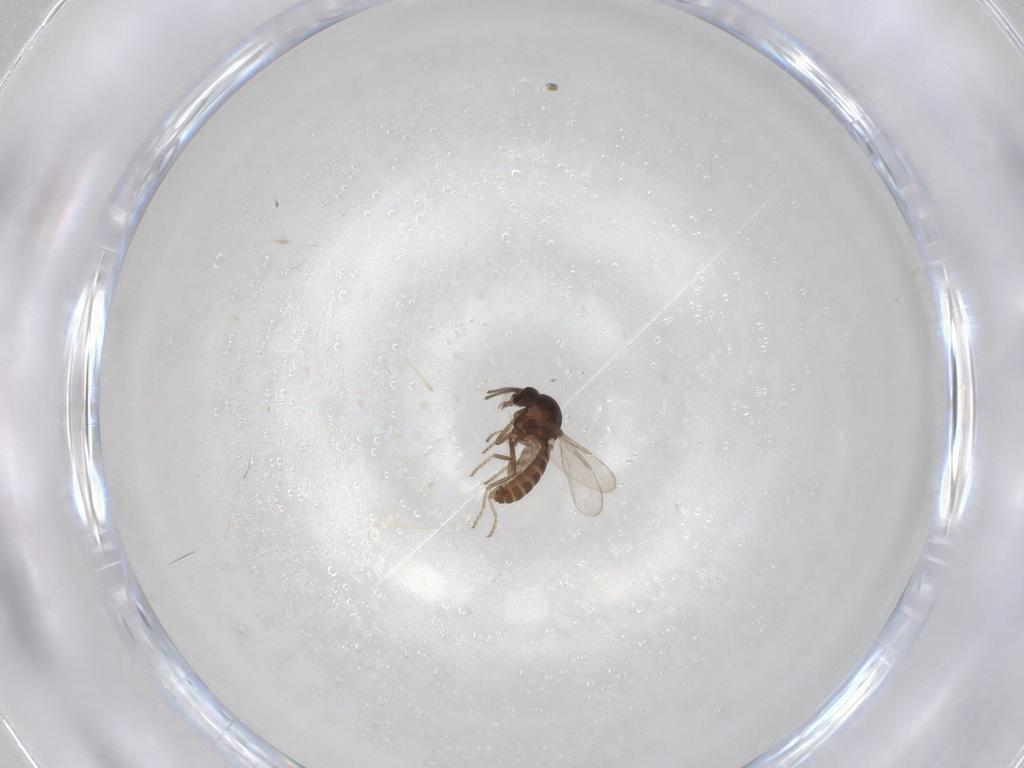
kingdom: Animalia
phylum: Arthropoda
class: Insecta
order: Diptera
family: Ceratopogonidae
